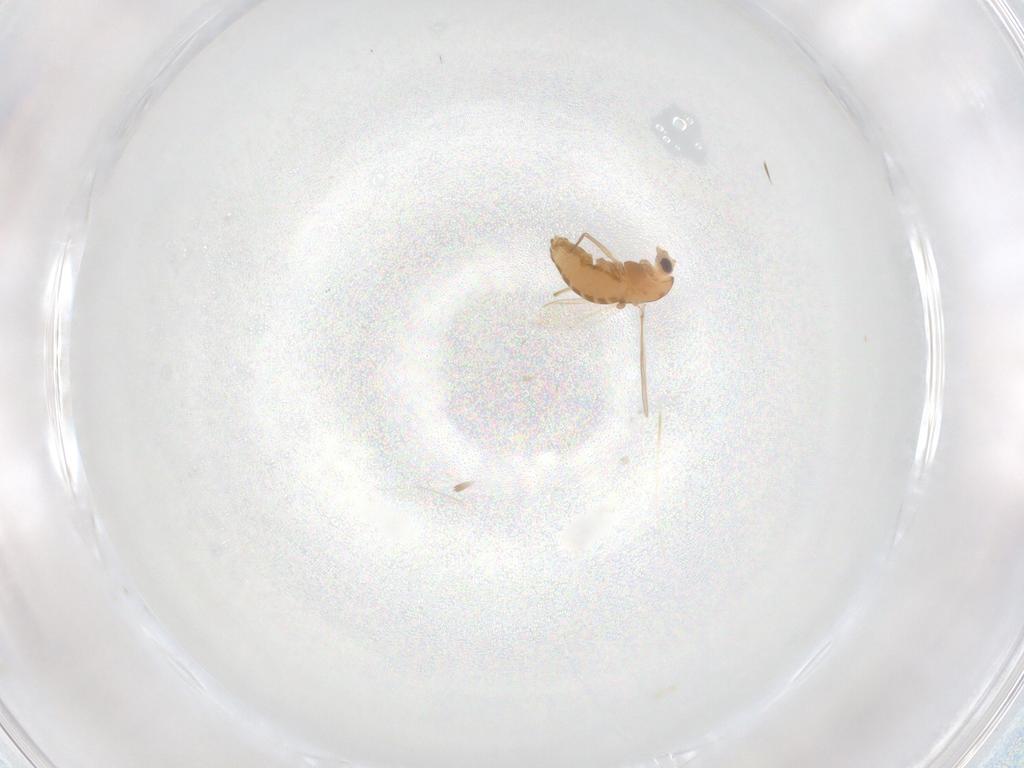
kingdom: Animalia
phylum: Arthropoda
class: Insecta
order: Diptera
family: Chironomidae
